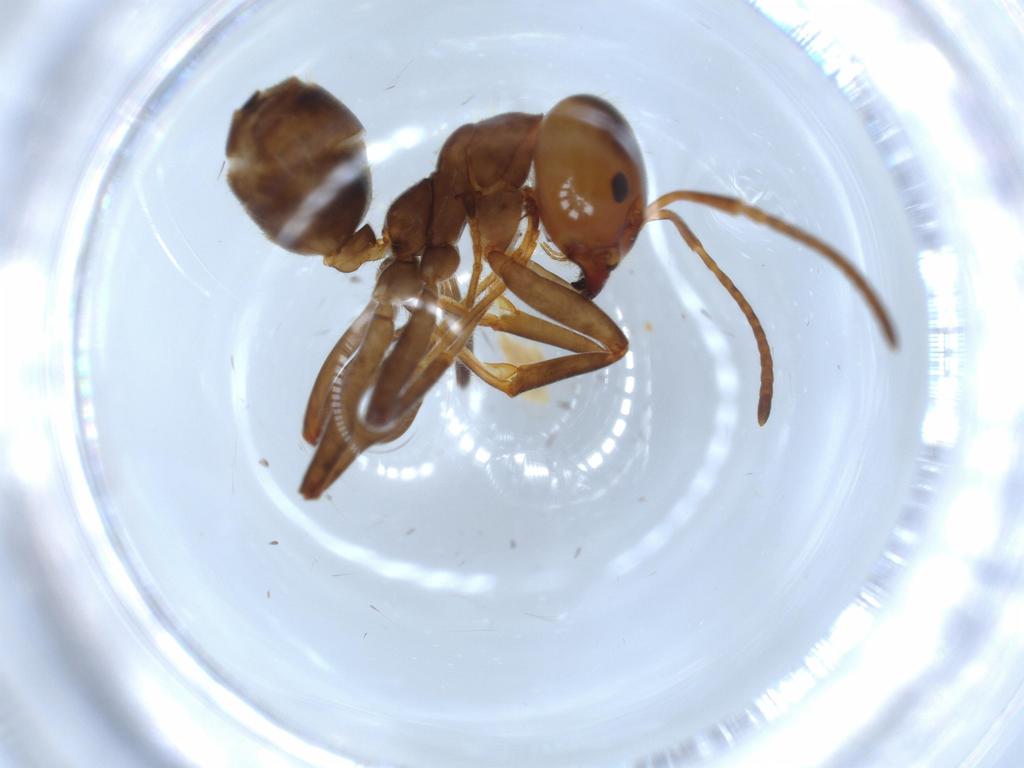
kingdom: Animalia
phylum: Arthropoda
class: Insecta
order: Hymenoptera
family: Formicidae
